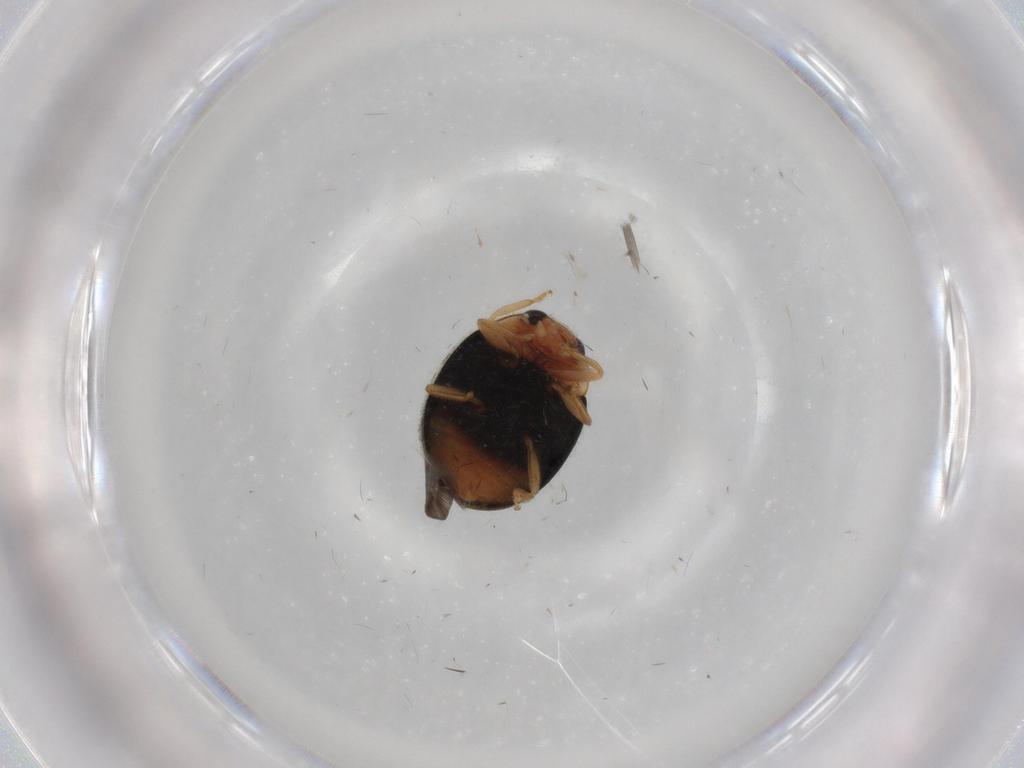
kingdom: Animalia
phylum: Arthropoda
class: Insecta
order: Coleoptera
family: Coccinellidae
